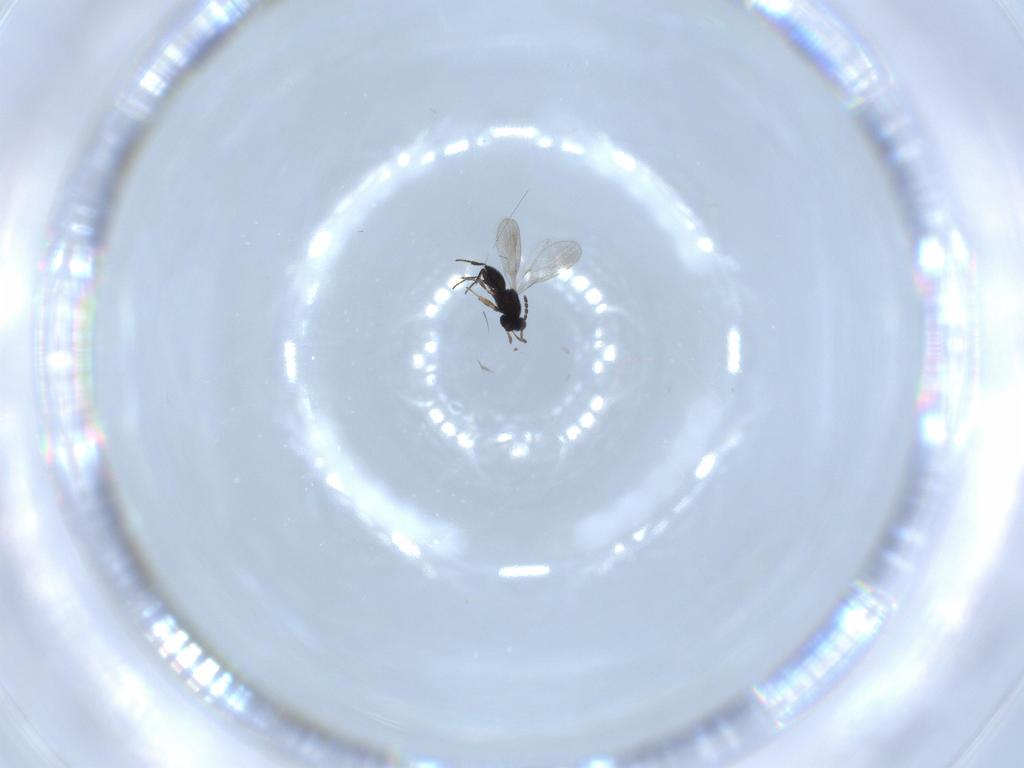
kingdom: Animalia
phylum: Arthropoda
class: Insecta
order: Hymenoptera
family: Platygastridae
